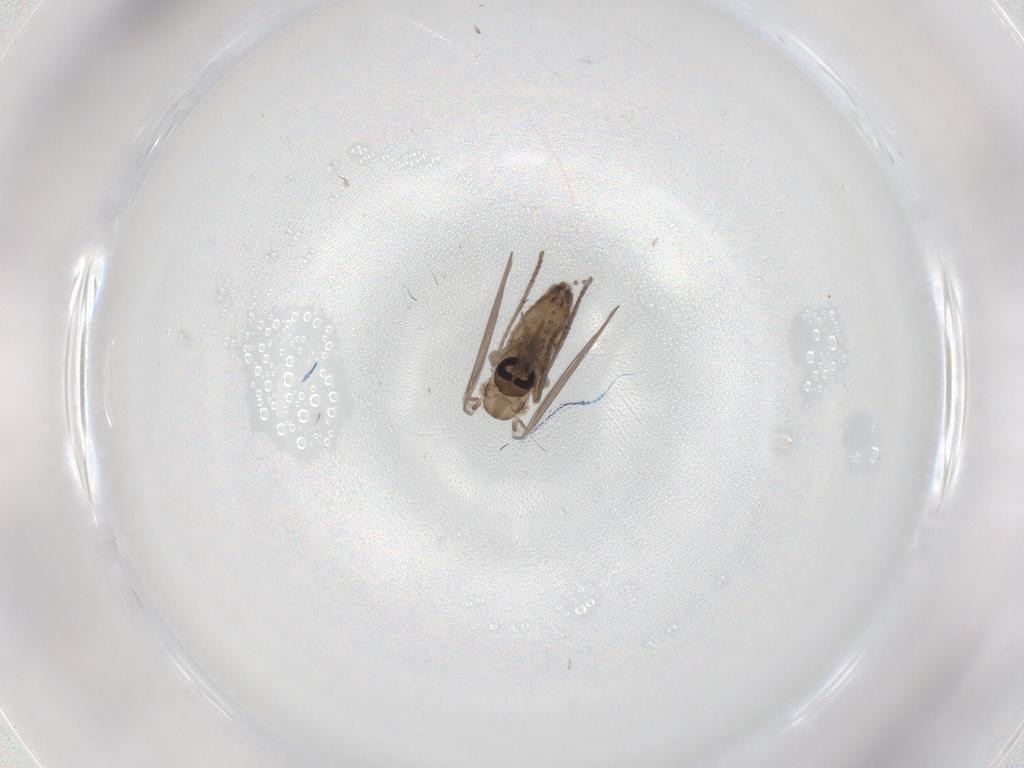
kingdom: Animalia
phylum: Arthropoda
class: Insecta
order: Diptera
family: Psychodidae
